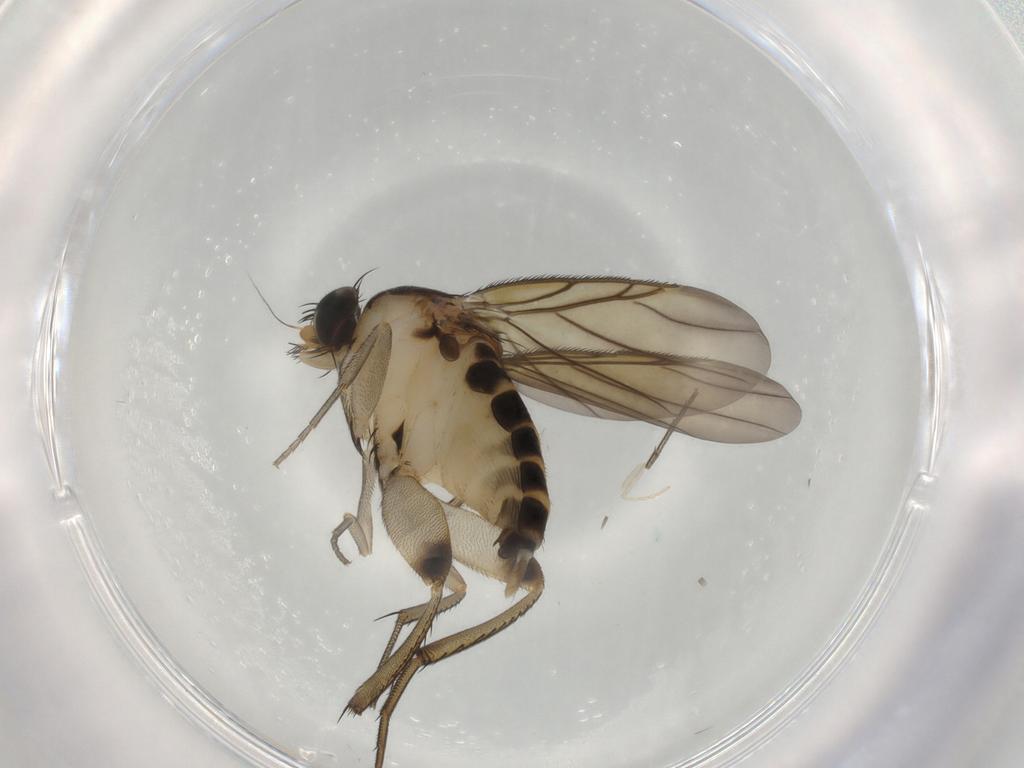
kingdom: Animalia
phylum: Arthropoda
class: Insecta
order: Diptera
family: Phoridae
